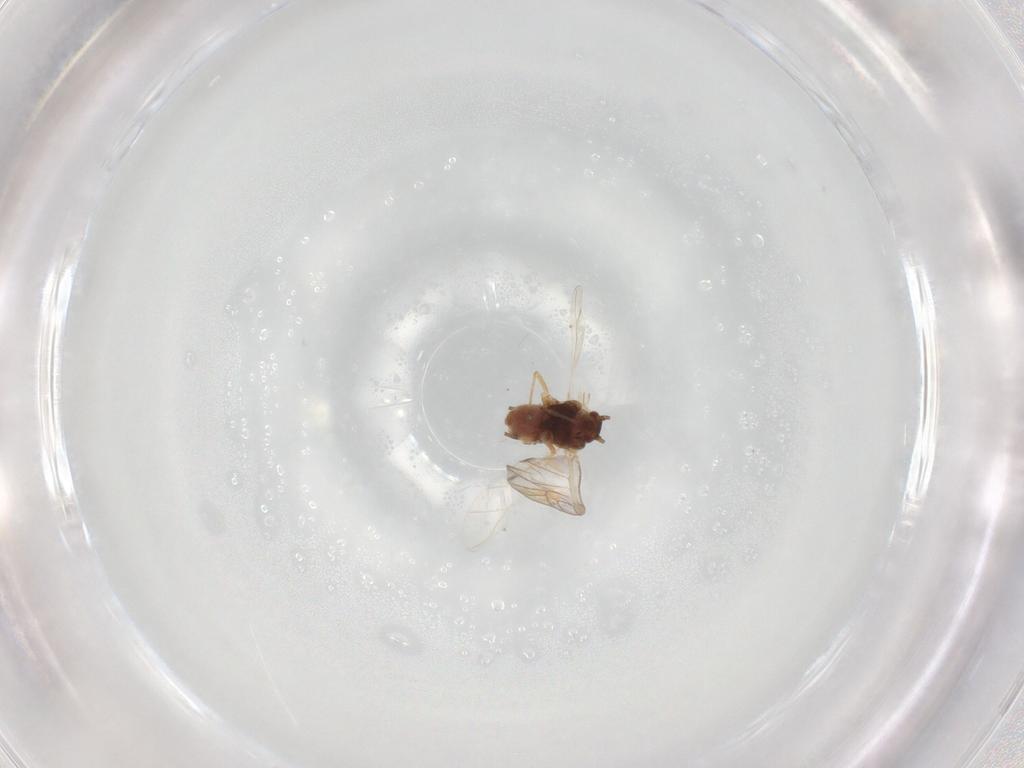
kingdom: Animalia
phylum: Arthropoda
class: Insecta
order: Hemiptera
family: Aphididae
